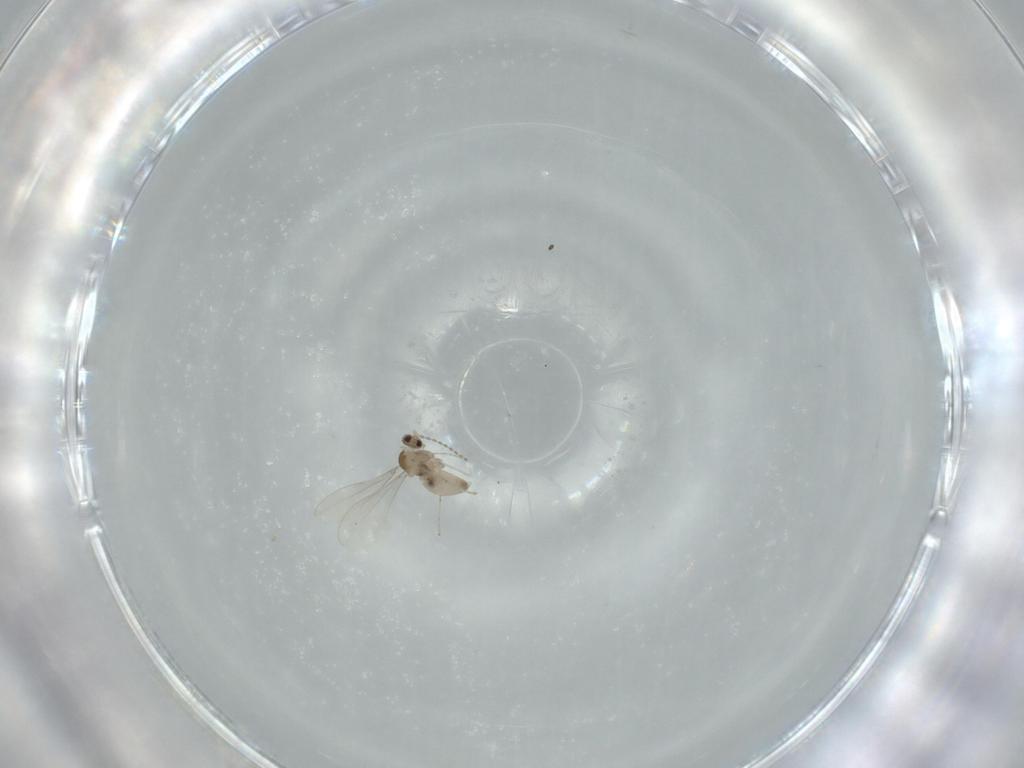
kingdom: Animalia
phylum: Arthropoda
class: Insecta
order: Diptera
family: Cecidomyiidae
